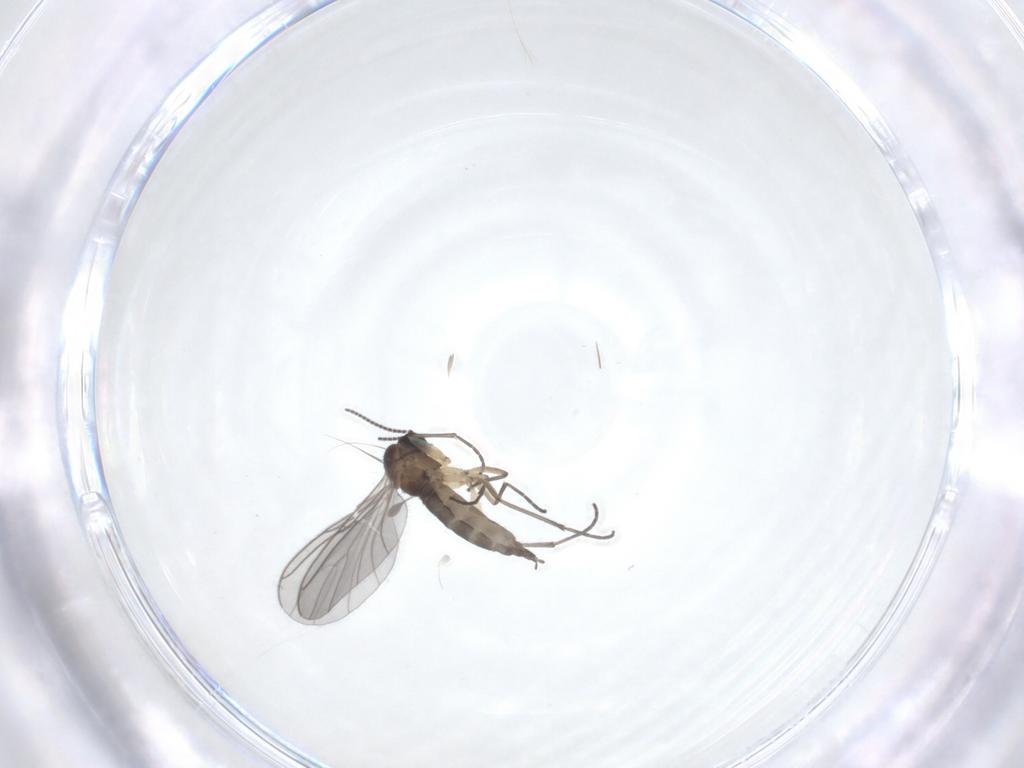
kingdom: Animalia
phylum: Arthropoda
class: Insecta
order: Diptera
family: Sciaridae
